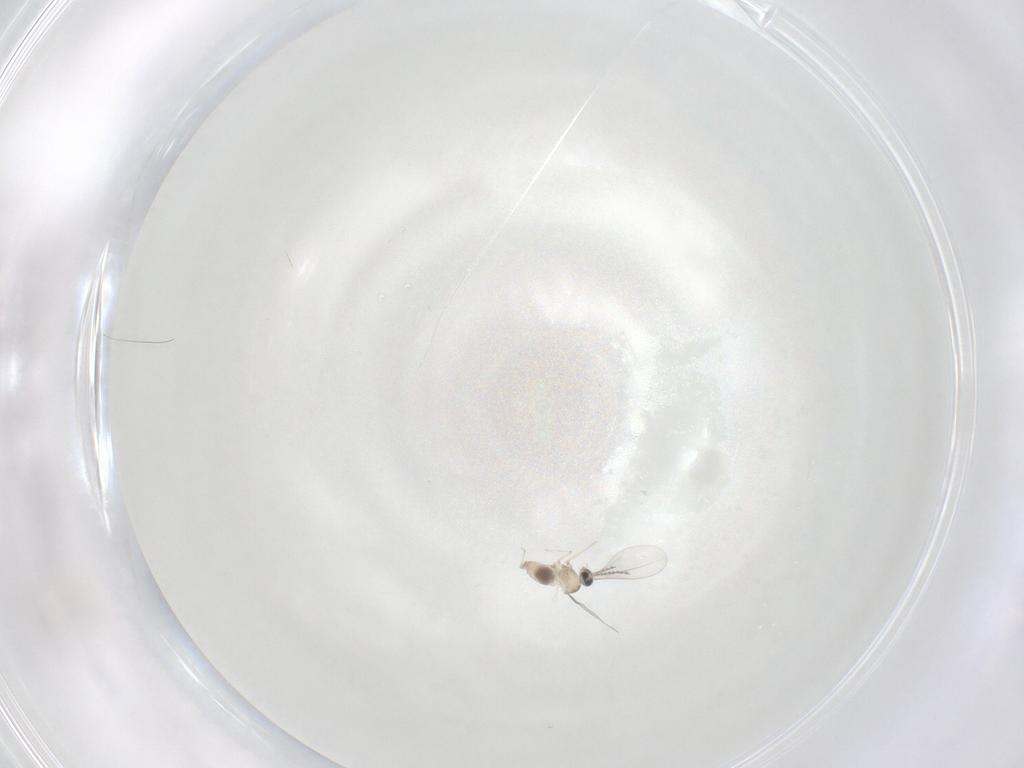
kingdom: Animalia
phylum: Arthropoda
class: Insecta
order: Diptera
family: Cecidomyiidae
